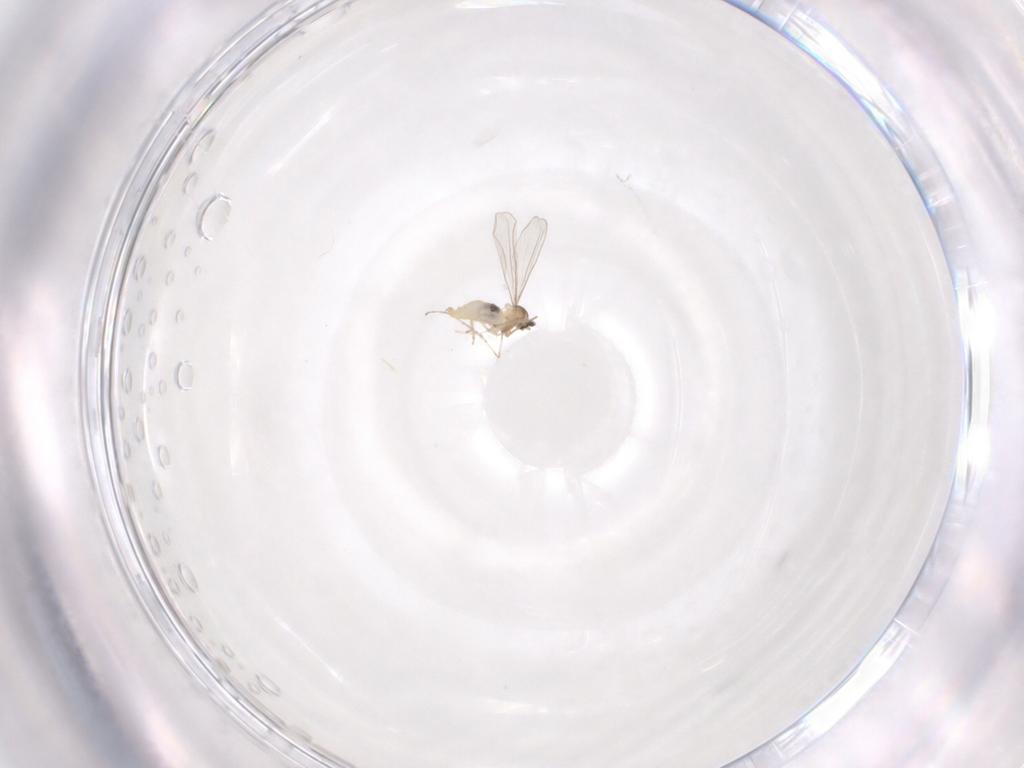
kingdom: Animalia
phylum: Arthropoda
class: Insecta
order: Diptera
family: Cecidomyiidae
